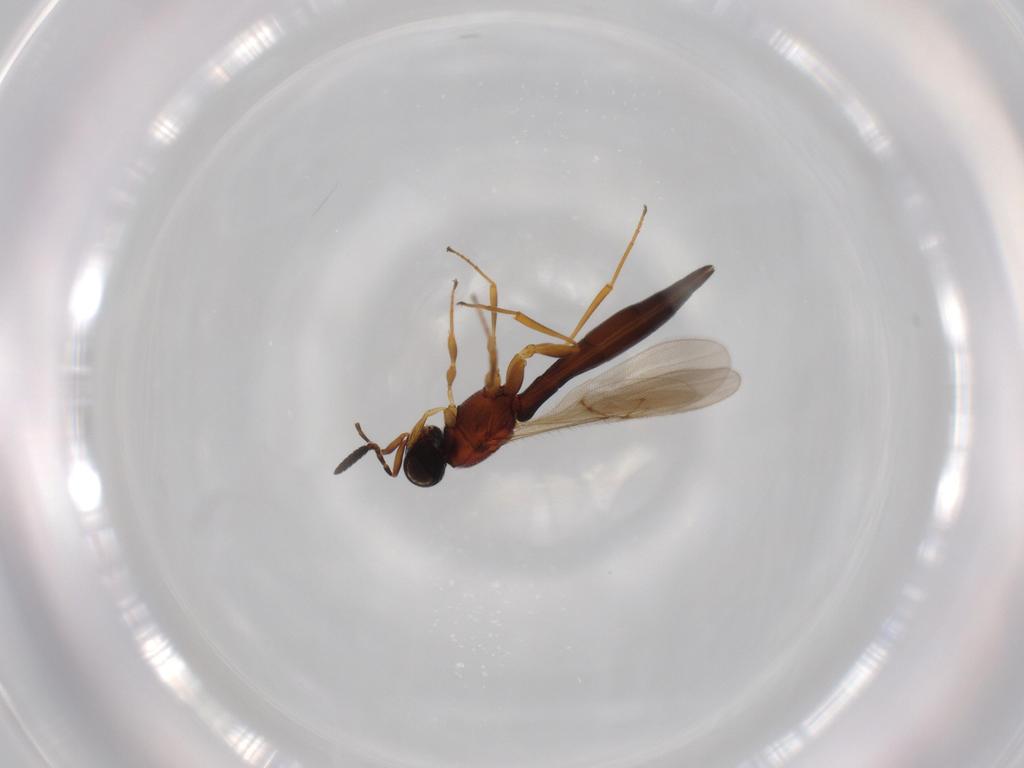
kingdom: Animalia
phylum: Arthropoda
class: Insecta
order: Hymenoptera
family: Scelionidae
